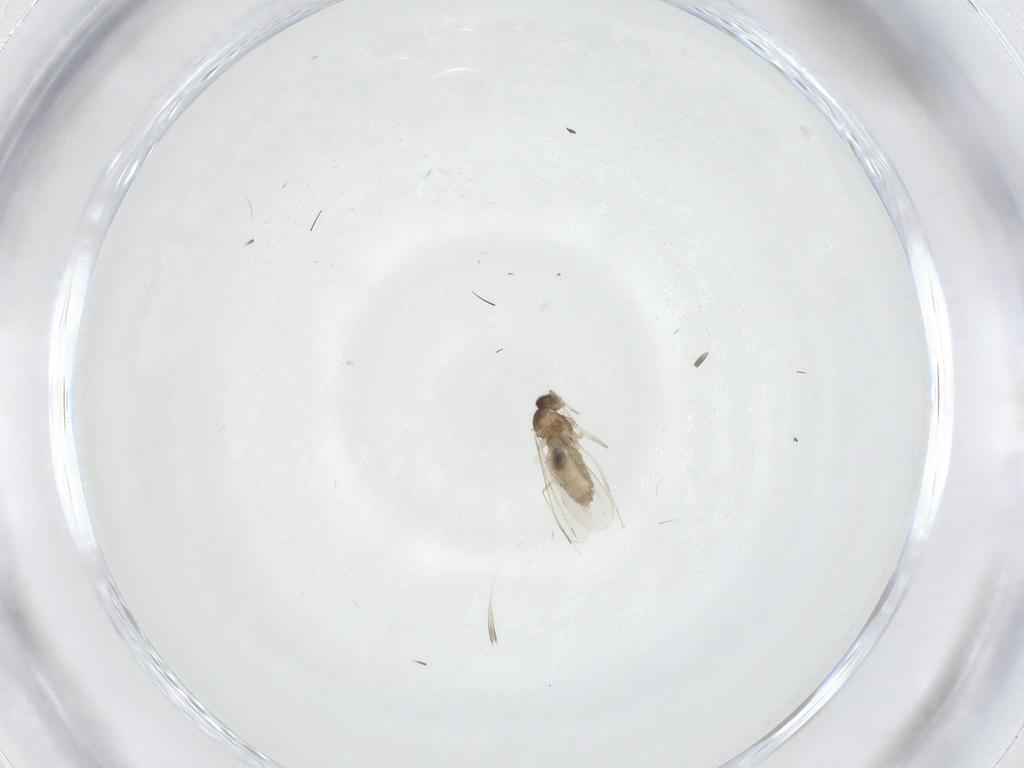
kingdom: Animalia
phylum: Arthropoda
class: Insecta
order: Diptera
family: Cecidomyiidae
